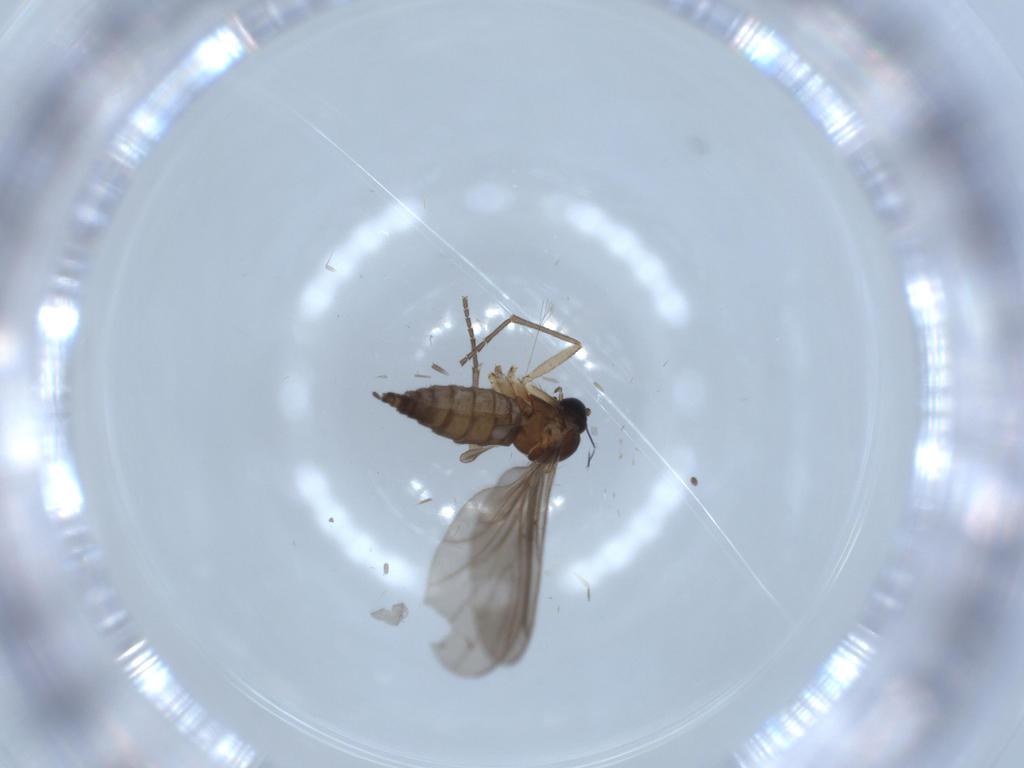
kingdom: Animalia
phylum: Arthropoda
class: Insecta
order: Diptera
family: Sciaridae
